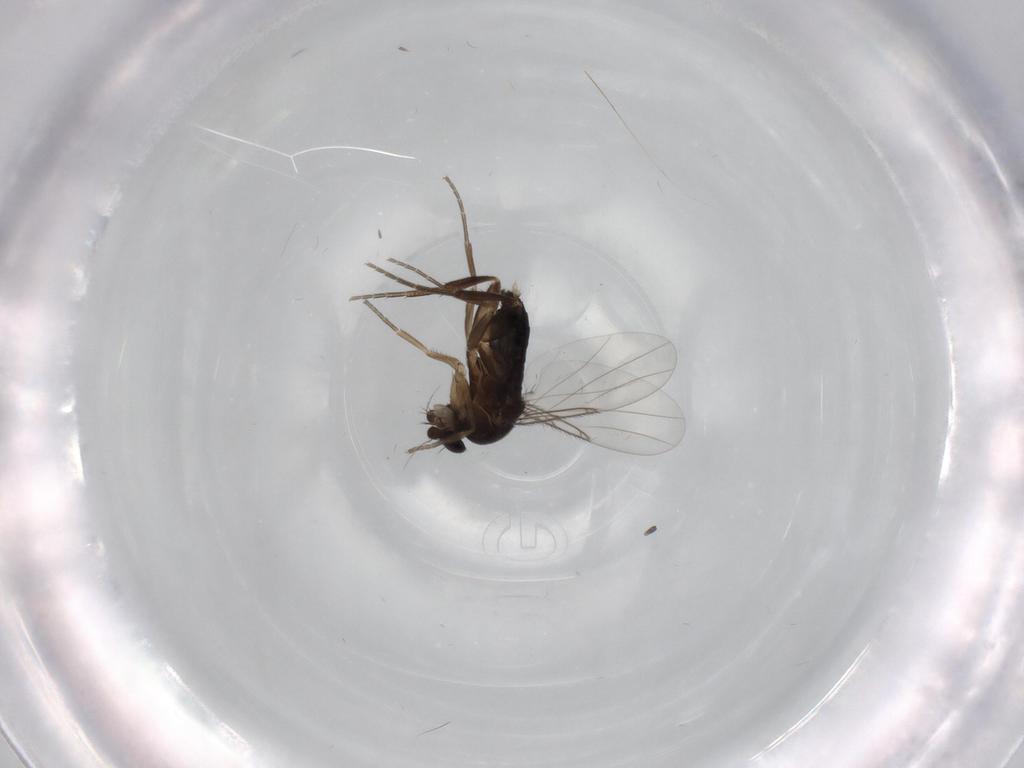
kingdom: Animalia
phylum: Arthropoda
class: Insecta
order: Diptera
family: Phoridae
